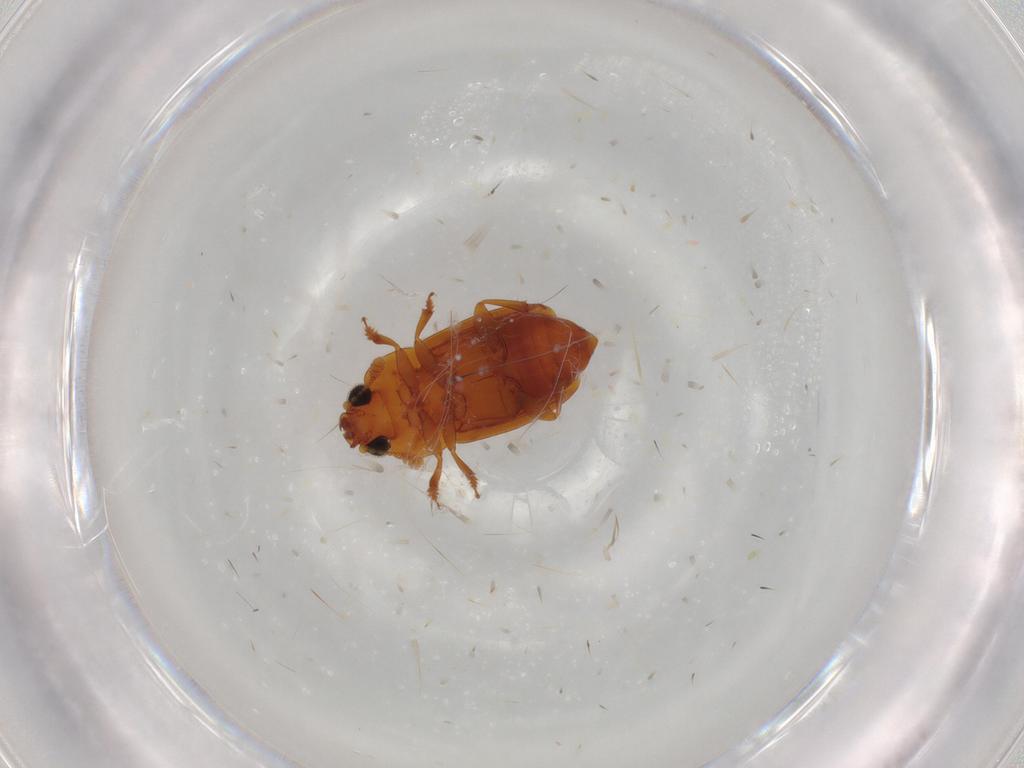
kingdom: Animalia
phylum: Arthropoda
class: Insecta
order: Coleoptera
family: Nitidulidae
